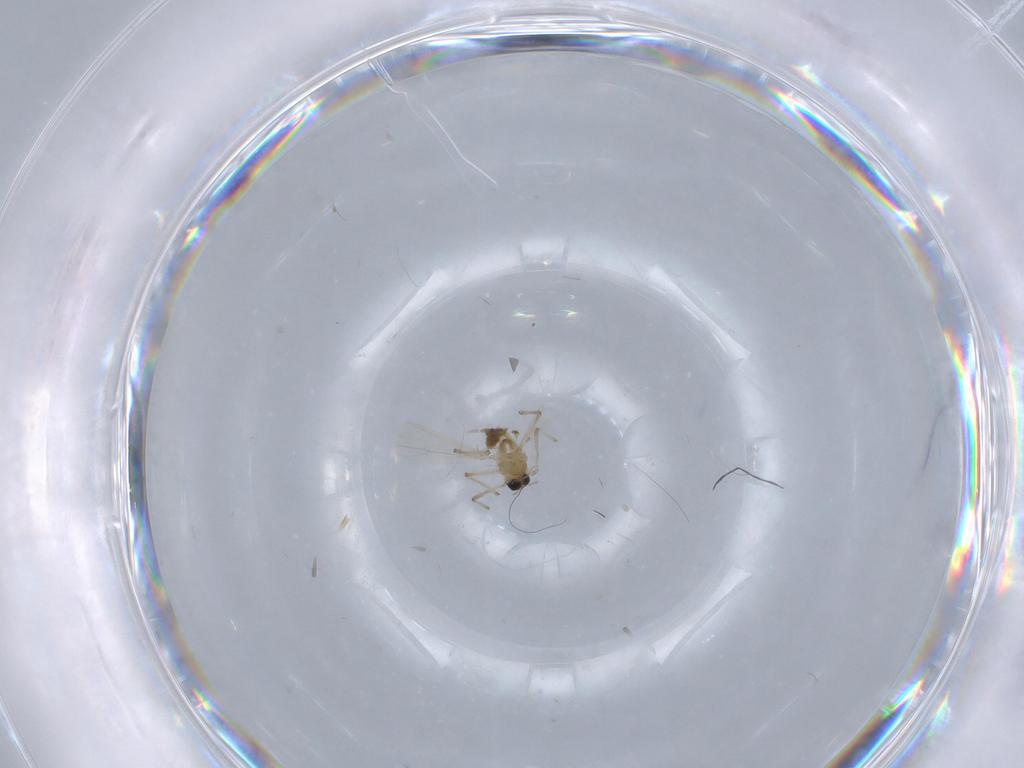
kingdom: Animalia
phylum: Arthropoda
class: Insecta
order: Diptera
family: Chironomidae
